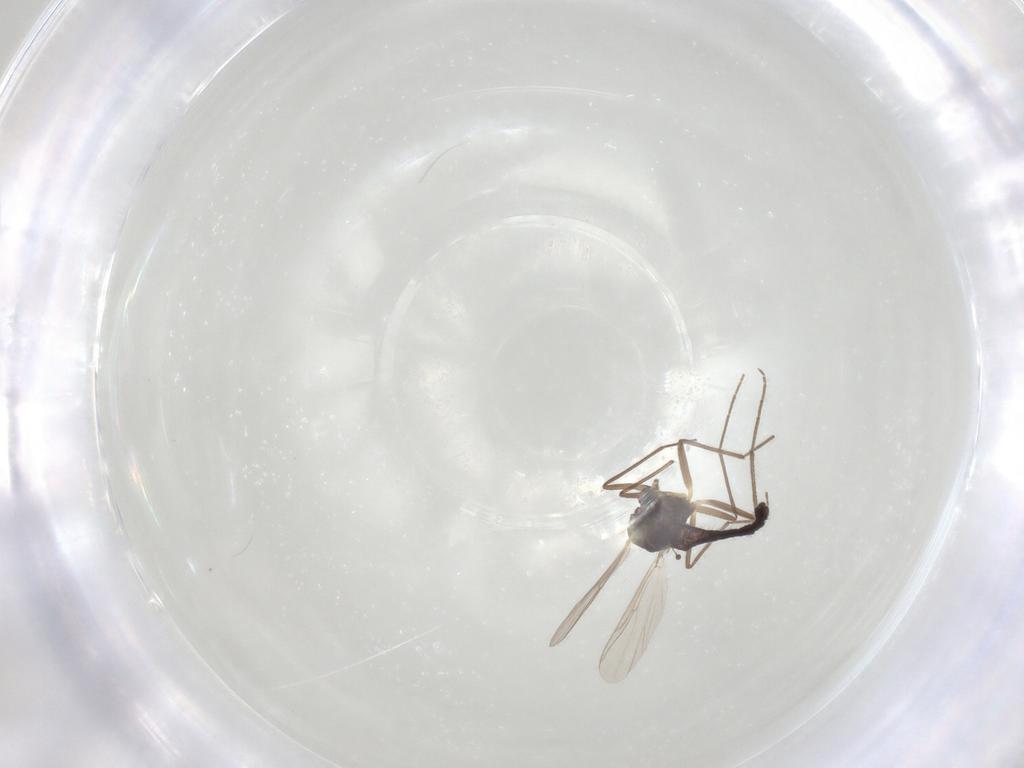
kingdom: Animalia
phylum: Arthropoda
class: Insecta
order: Diptera
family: Chironomidae
